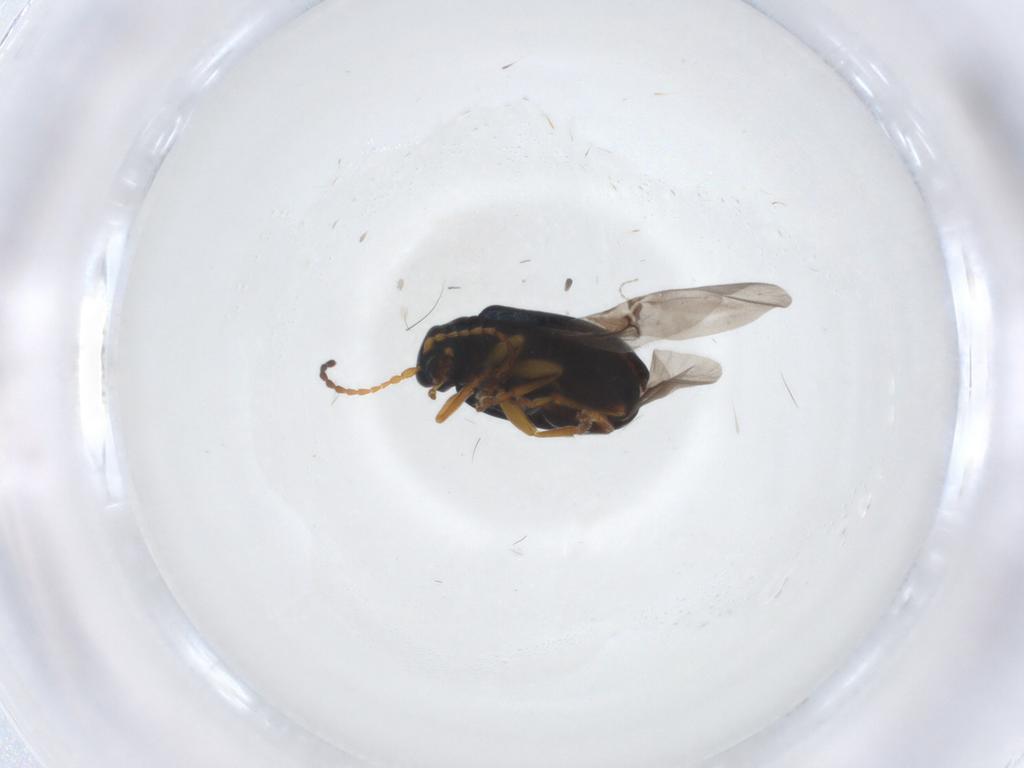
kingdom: Animalia
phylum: Arthropoda
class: Insecta
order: Coleoptera
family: Chrysomelidae
